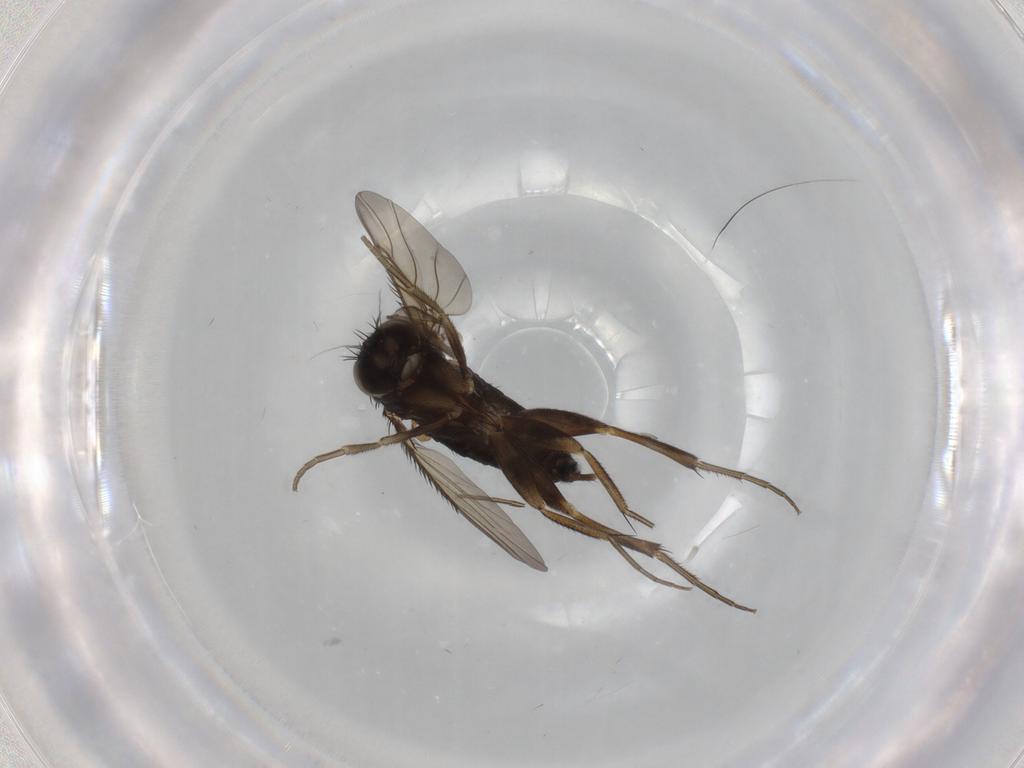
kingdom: Animalia
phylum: Arthropoda
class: Insecta
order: Diptera
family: Phoridae
